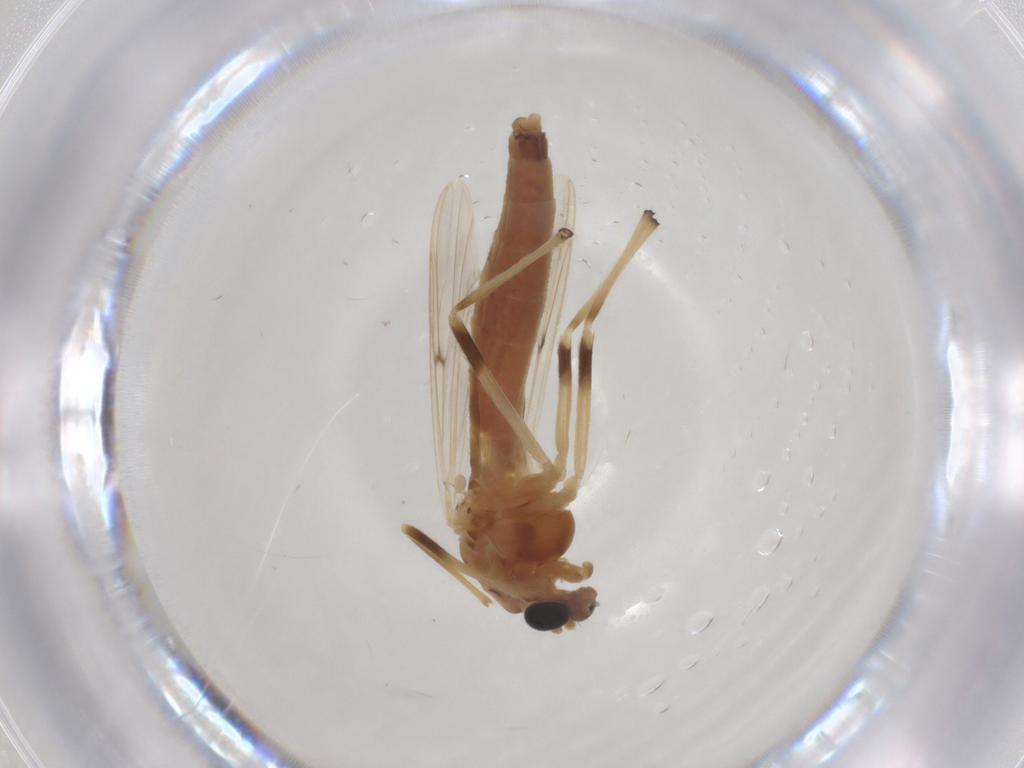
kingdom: Animalia
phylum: Arthropoda
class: Insecta
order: Diptera
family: Chironomidae
